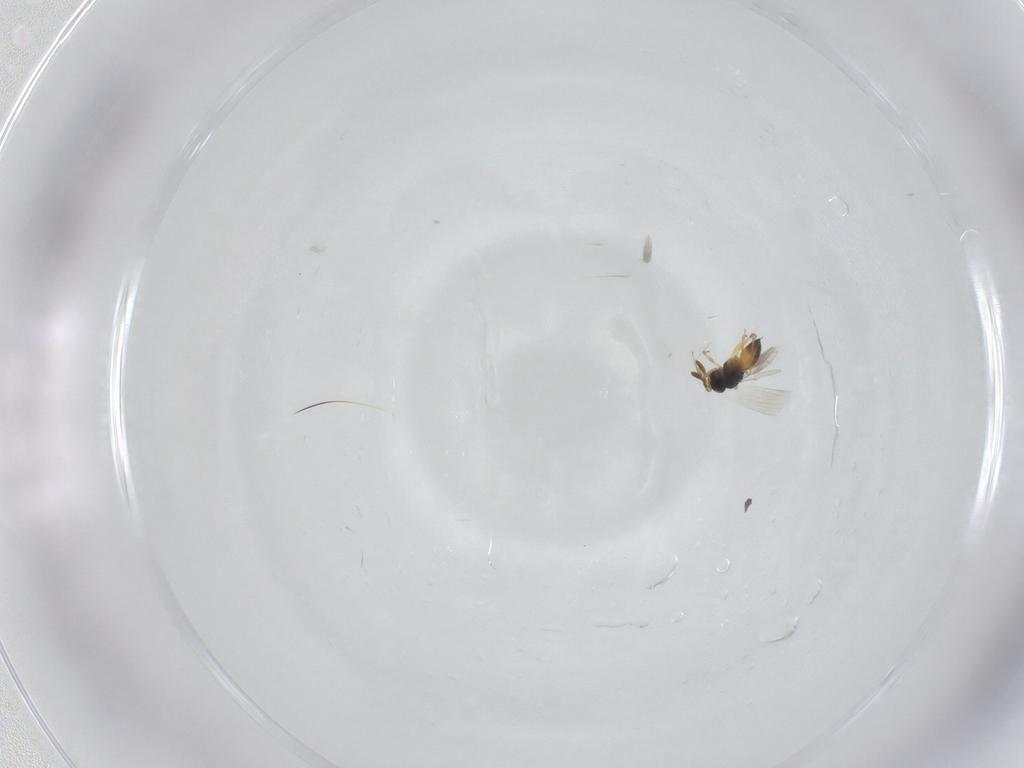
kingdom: Animalia
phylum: Arthropoda
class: Insecta
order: Hymenoptera
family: Scelionidae
